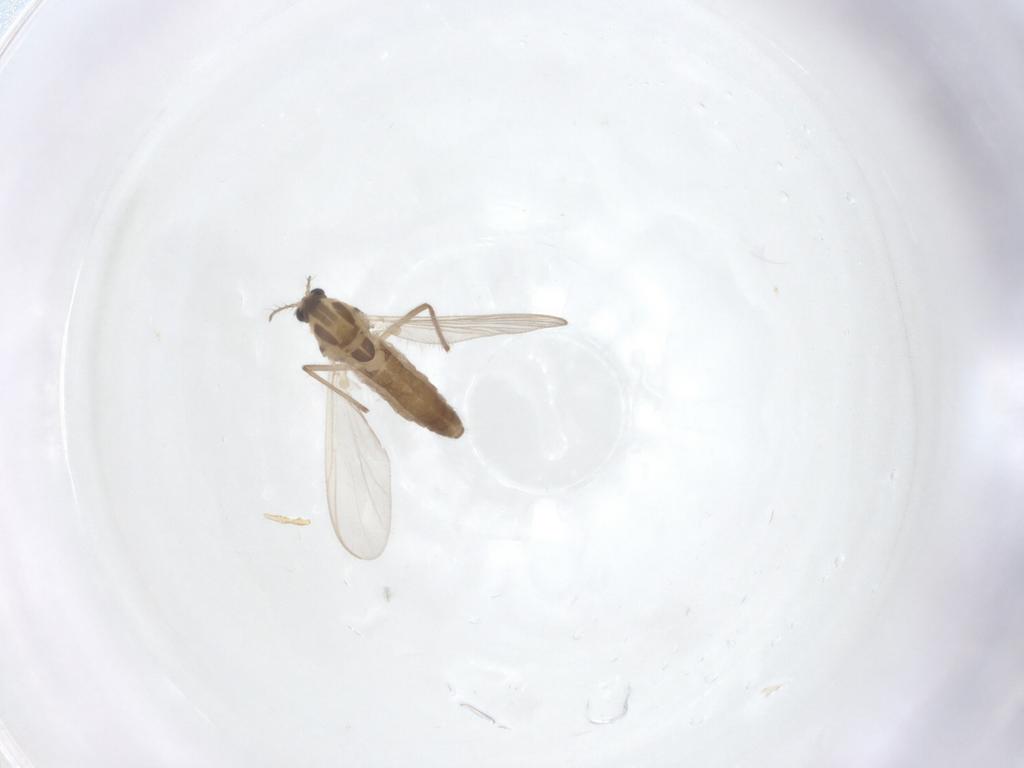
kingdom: Animalia
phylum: Arthropoda
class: Insecta
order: Diptera
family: Chironomidae
